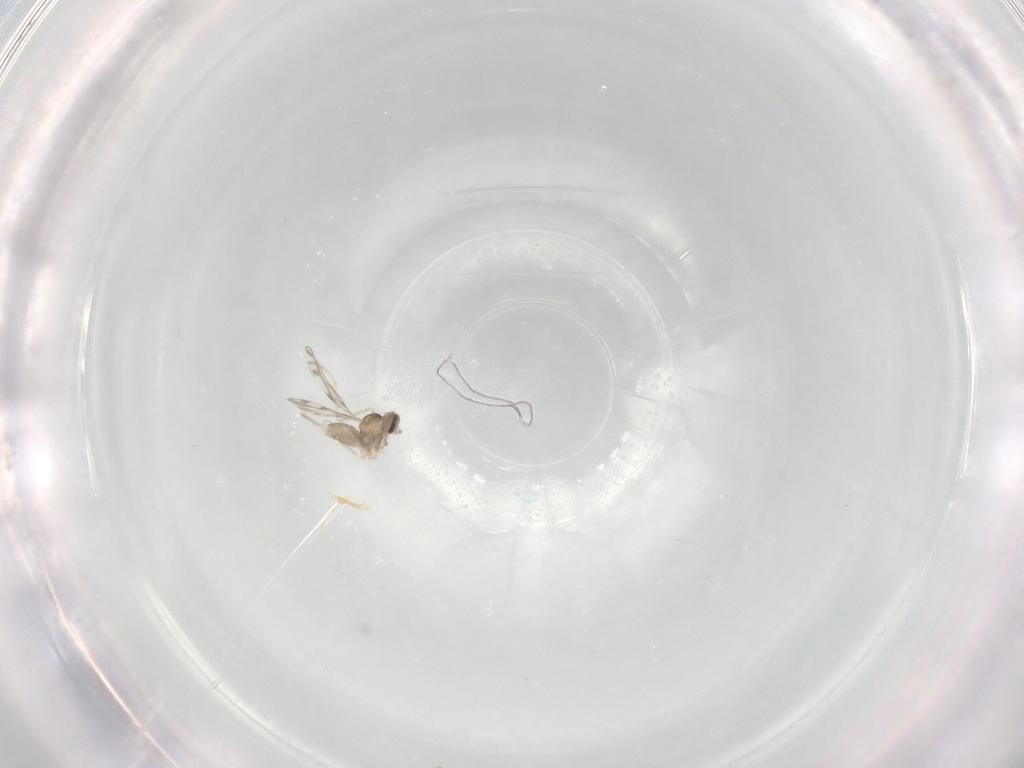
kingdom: Animalia
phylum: Arthropoda
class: Insecta
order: Diptera
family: Cecidomyiidae
